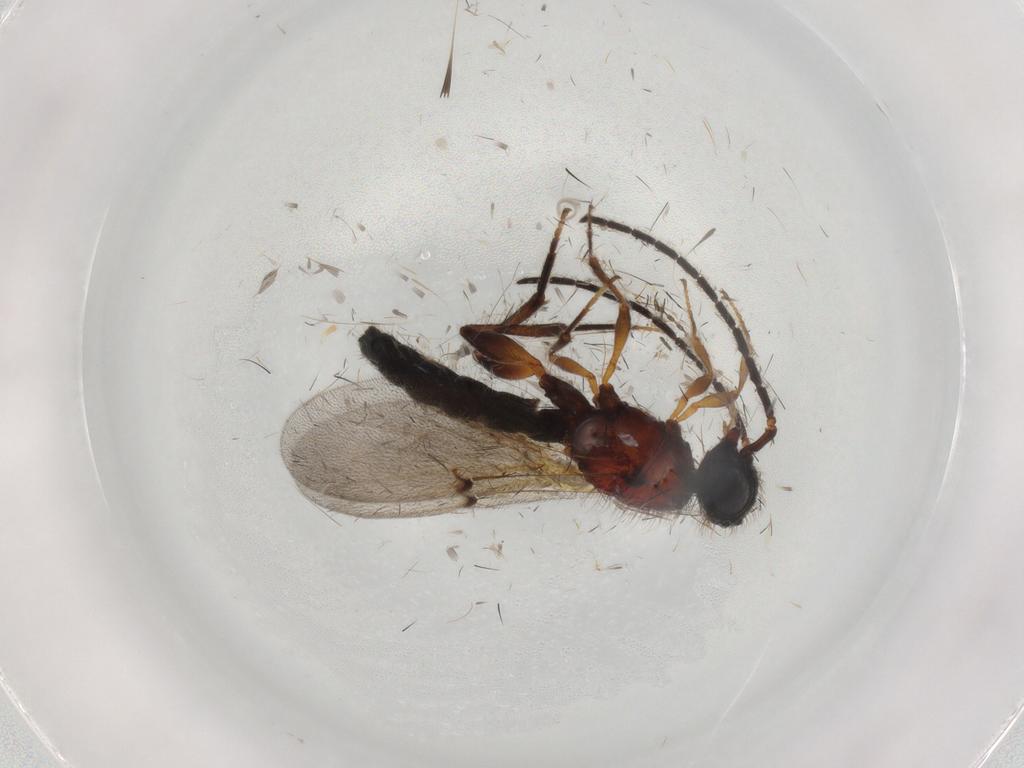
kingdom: Animalia
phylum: Arthropoda
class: Insecta
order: Hymenoptera
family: Scelionidae
